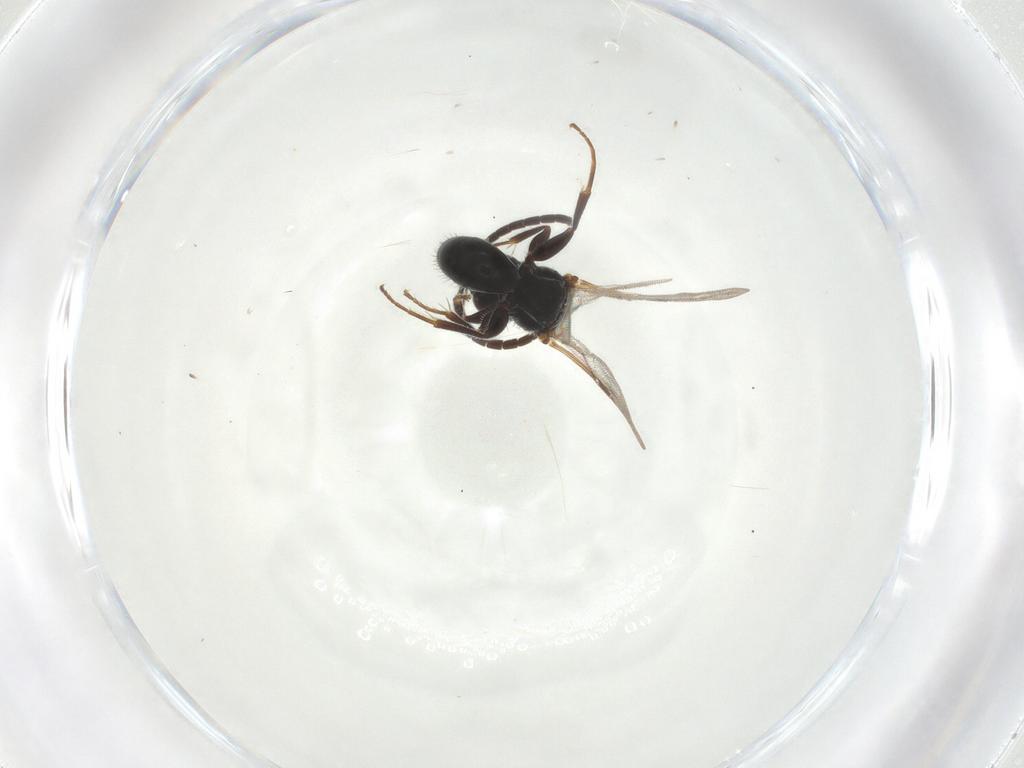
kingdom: Animalia
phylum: Arthropoda
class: Insecta
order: Hymenoptera
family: Bethylidae
